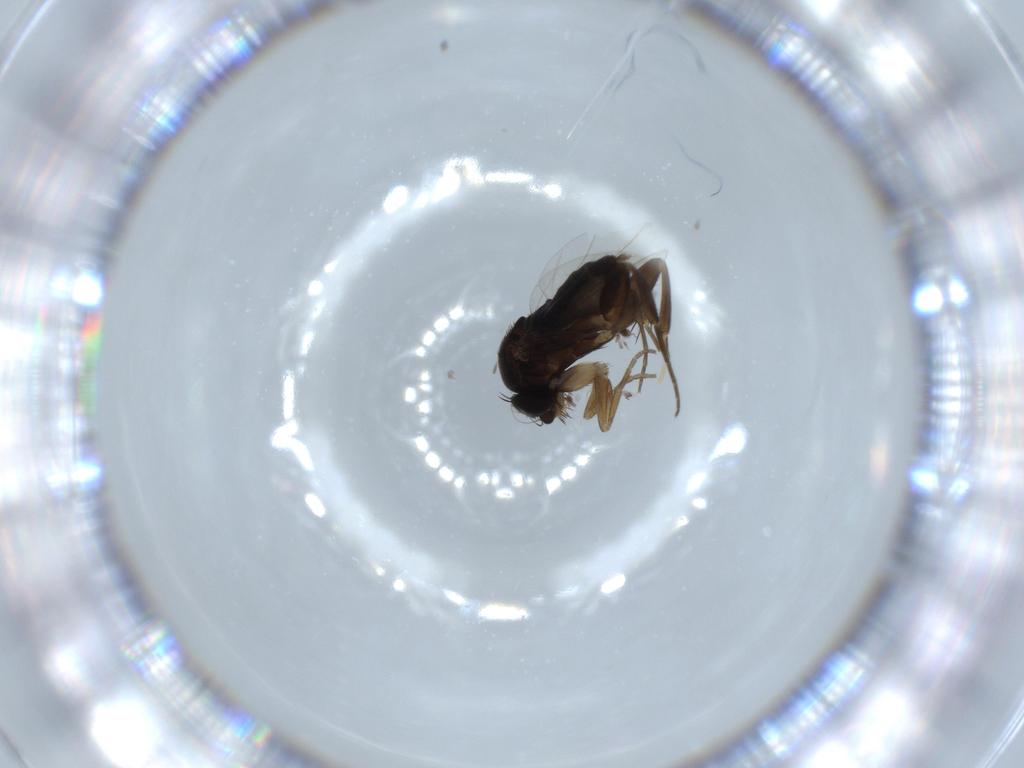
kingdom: Animalia
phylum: Arthropoda
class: Insecta
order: Diptera
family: Phoridae
